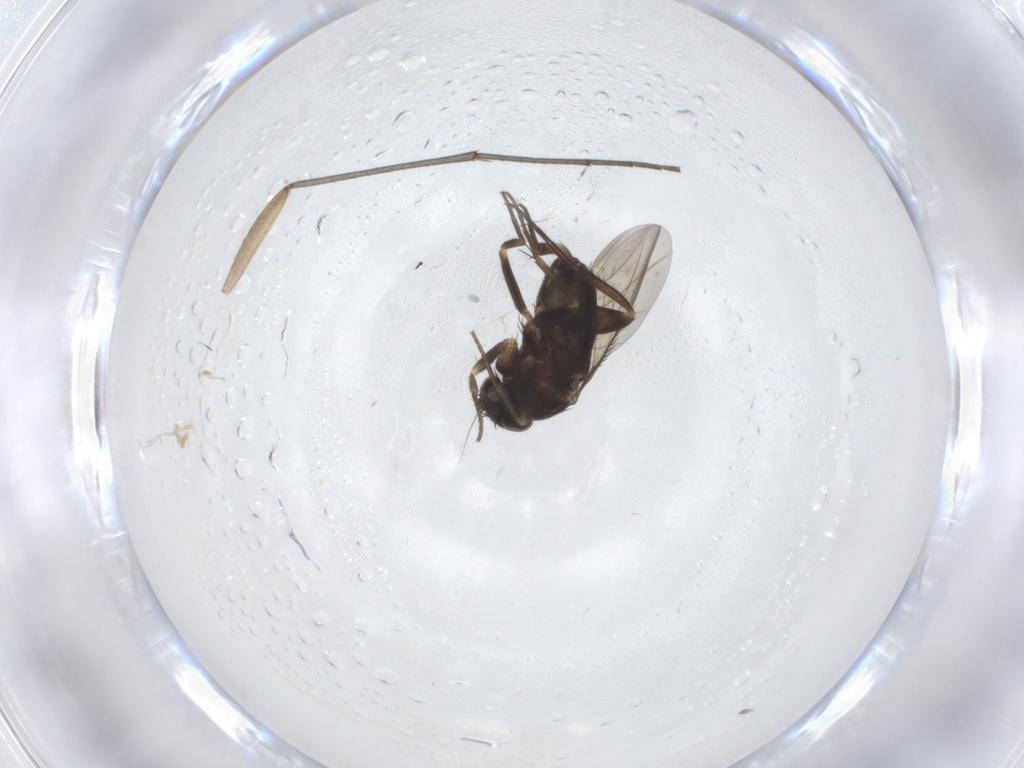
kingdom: Animalia
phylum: Arthropoda
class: Insecta
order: Diptera
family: Phoridae
